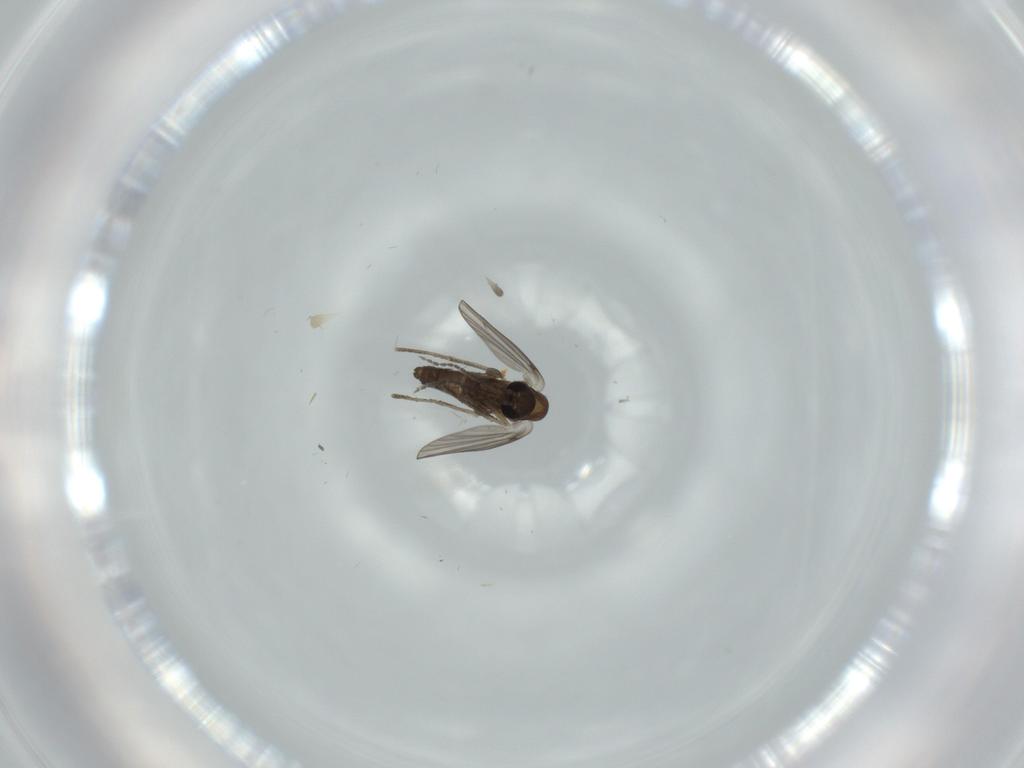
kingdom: Animalia
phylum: Arthropoda
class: Insecta
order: Diptera
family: Sciaridae
